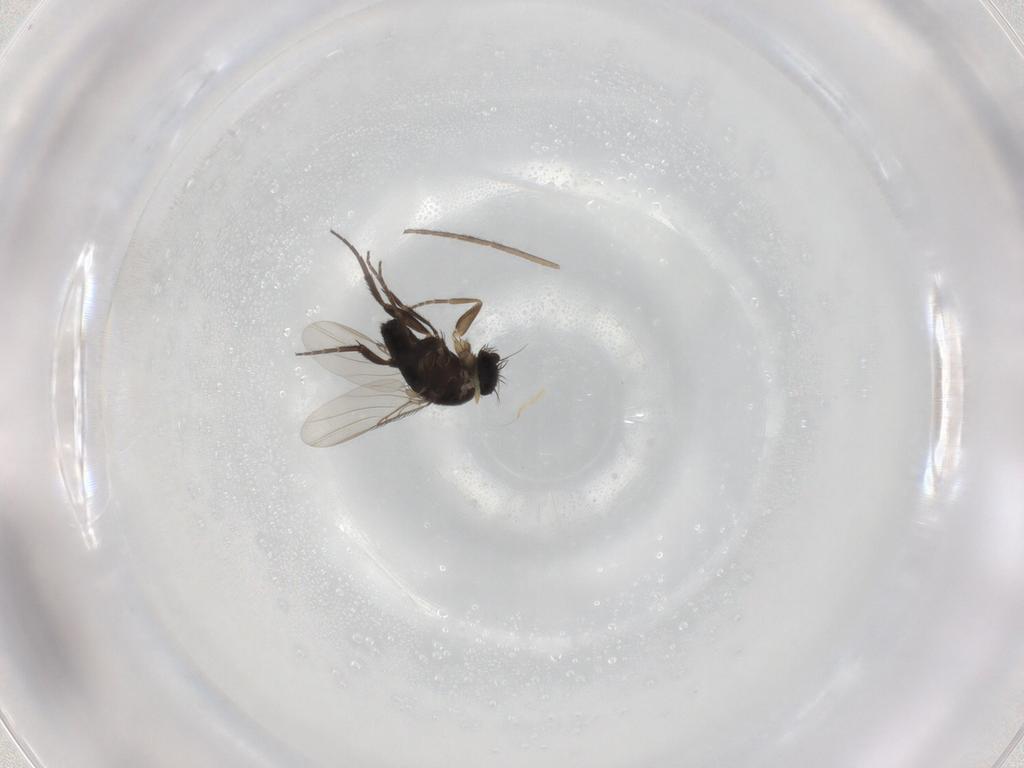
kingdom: Animalia
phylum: Arthropoda
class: Insecta
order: Diptera
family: Phoridae
